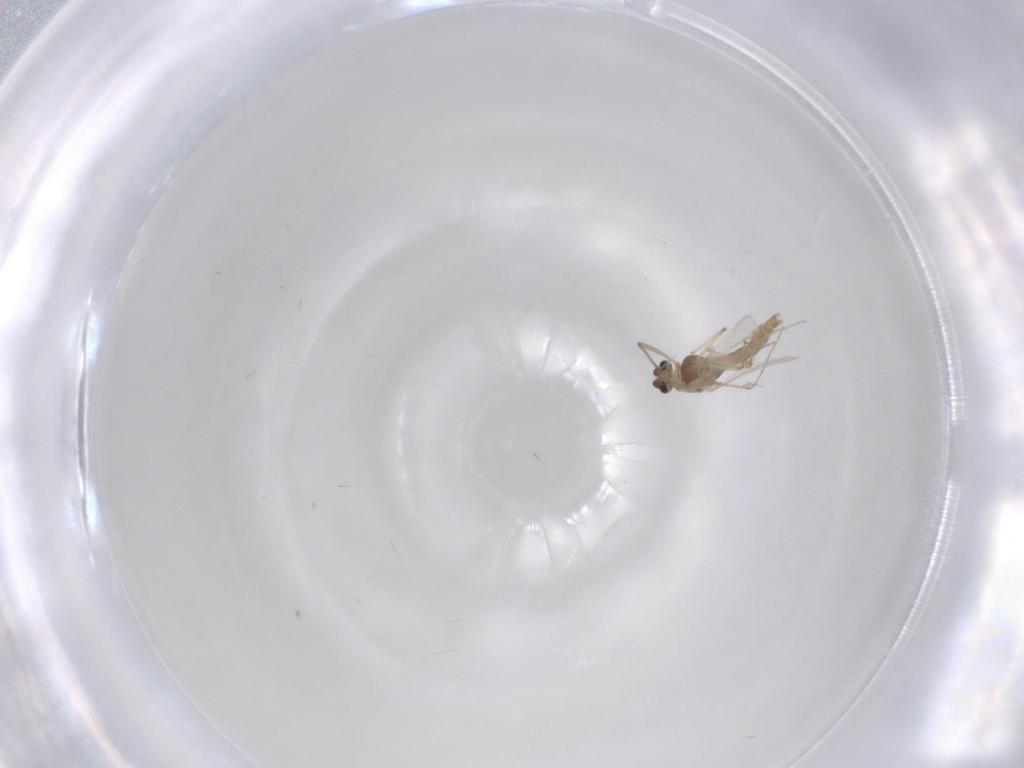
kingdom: Animalia
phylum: Arthropoda
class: Insecta
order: Diptera
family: Chironomidae
